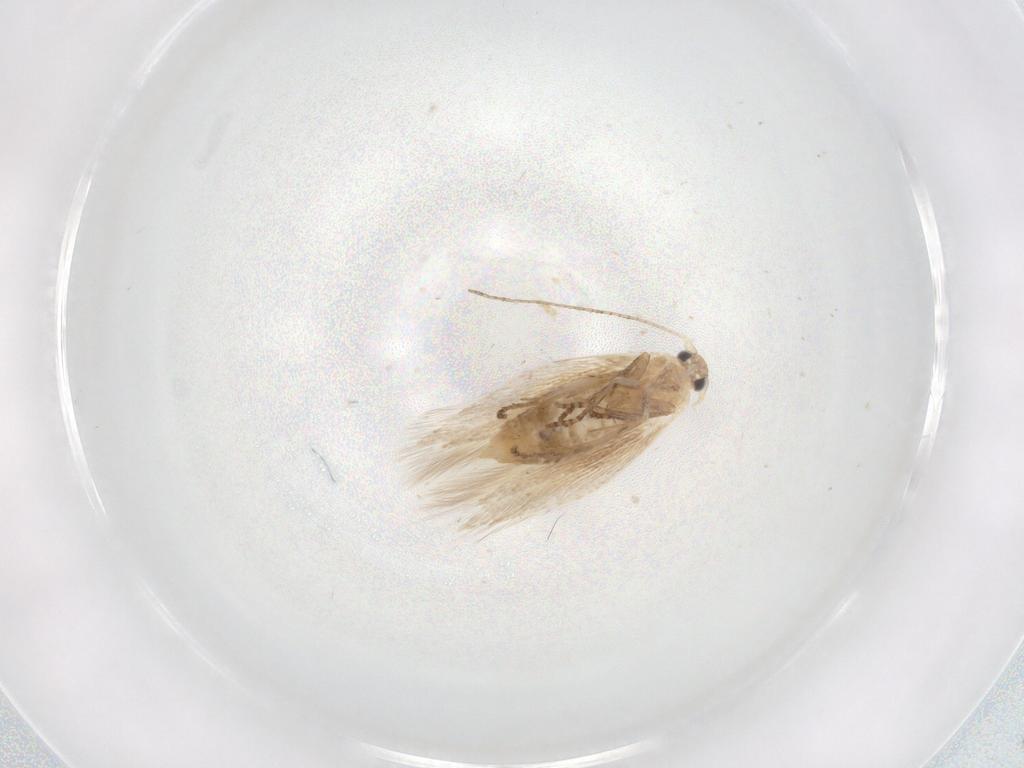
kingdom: Animalia
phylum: Arthropoda
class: Insecta
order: Lepidoptera
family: Bucculatricidae
